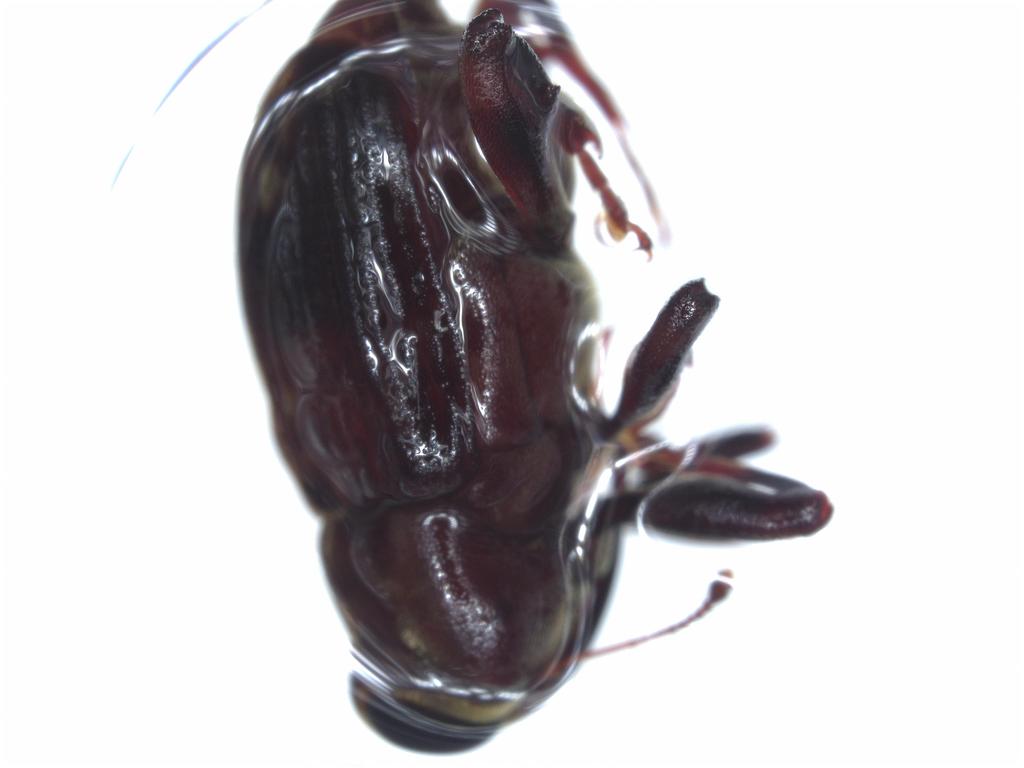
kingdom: Animalia
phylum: Arthropoda
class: Insecta
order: Coleoptera
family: Curculionidae
